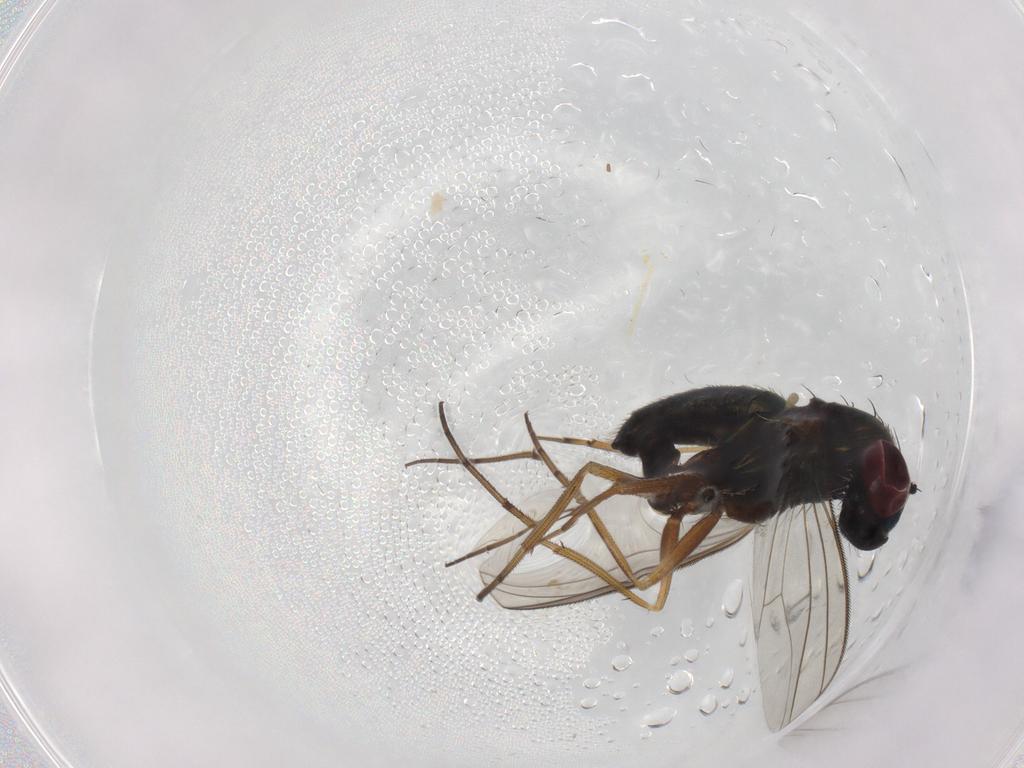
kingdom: Animalia
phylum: Arthropoda
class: Insecta
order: Diptera
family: Dolichopodidae
